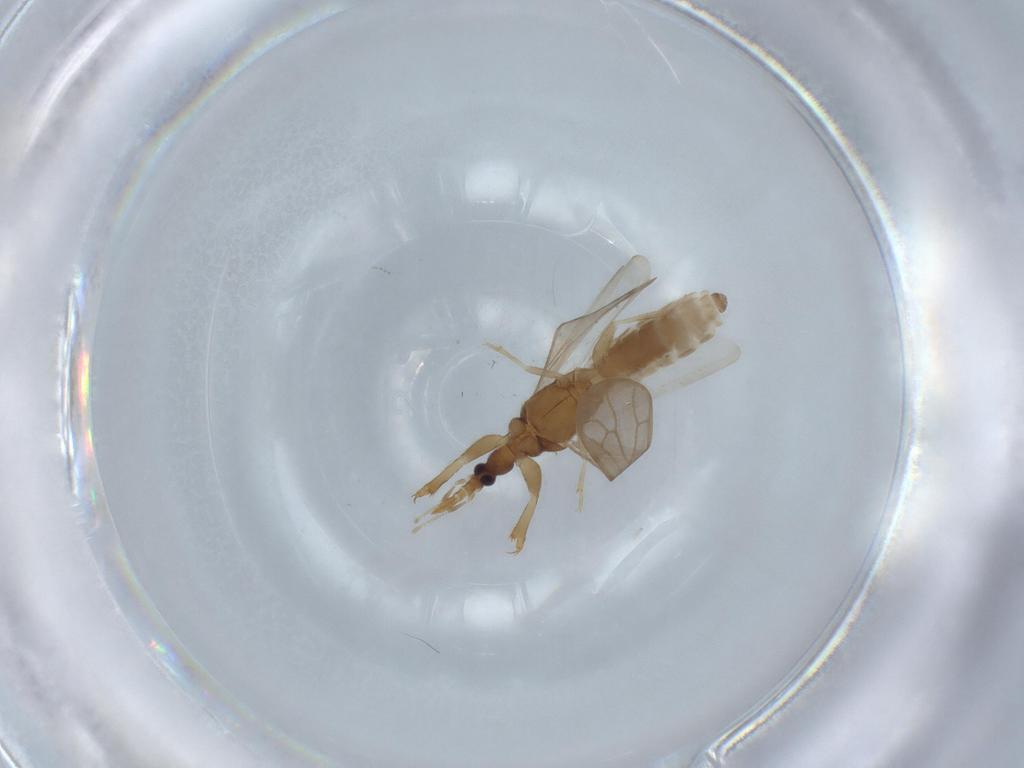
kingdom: Animalia
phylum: Arthropoda
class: Insecta
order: Hemiptera
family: Enicocephalidae
